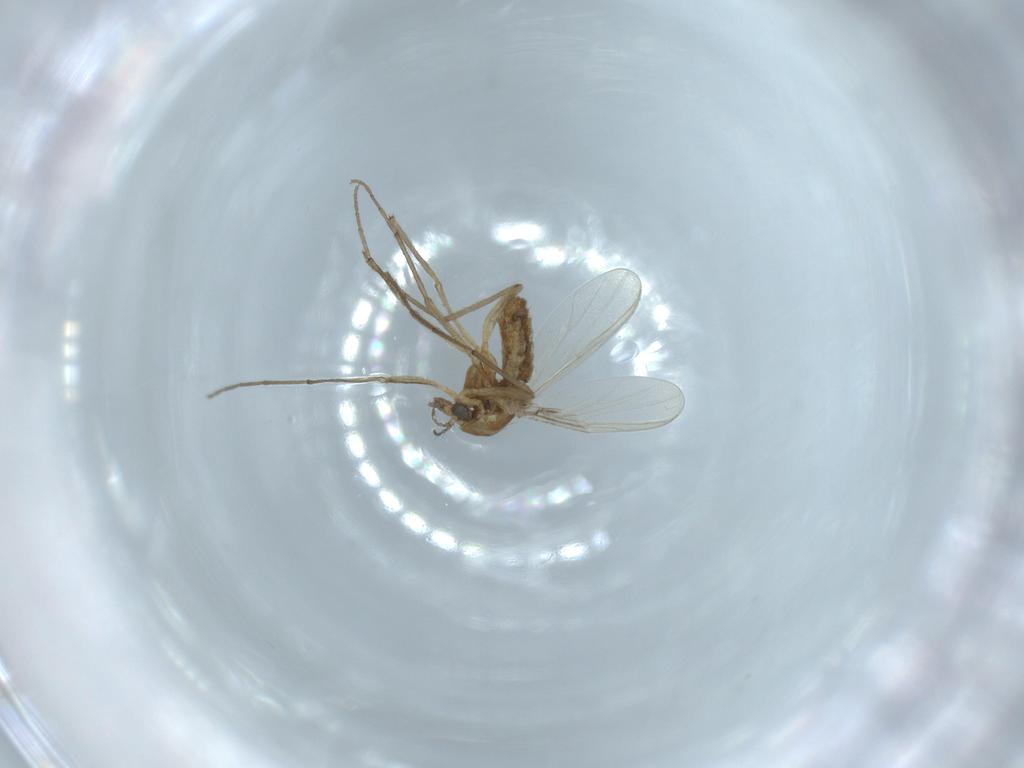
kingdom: Animalia
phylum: Arthropoda
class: Insecta
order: Diptera
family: Chironomidae
